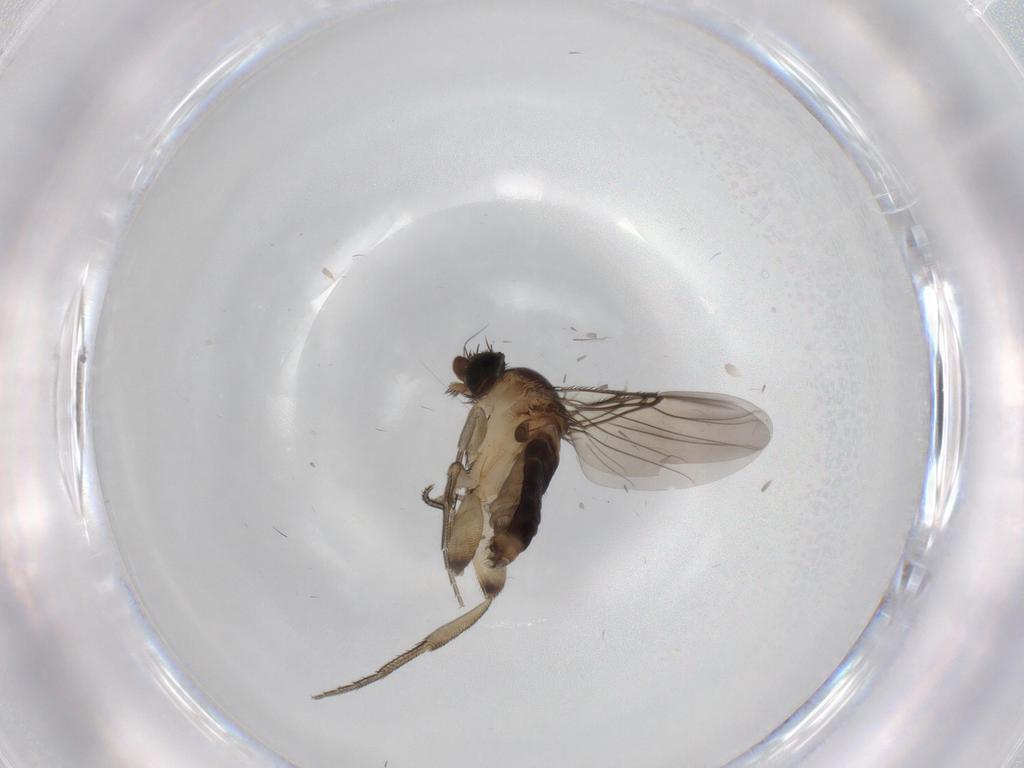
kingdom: Animalia
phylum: Arthropoda
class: Insecta
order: Diptera
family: Phoridae
